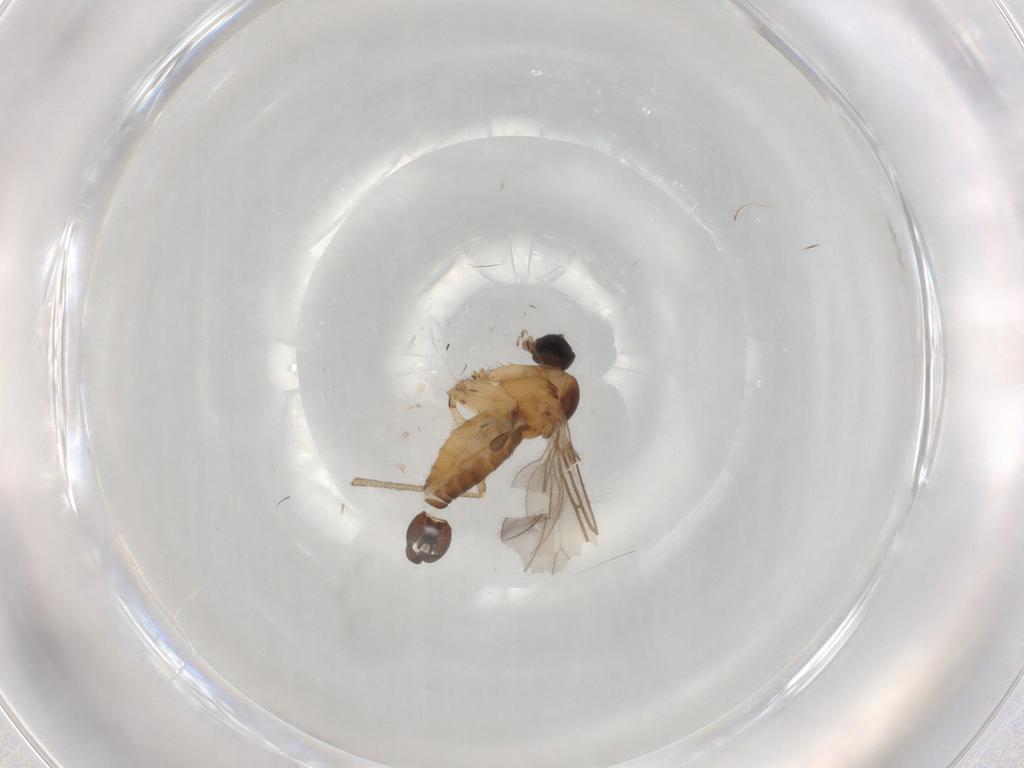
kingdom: Animalia
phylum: Arthropoda
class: Insecta
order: Diptera
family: Sciaridae
